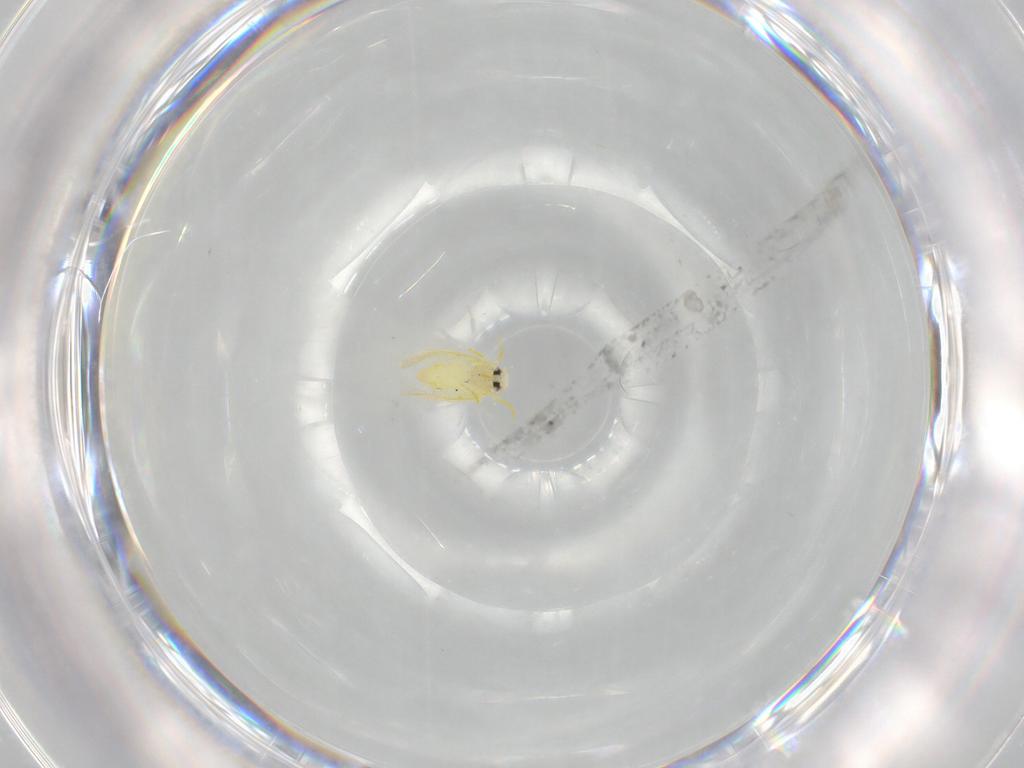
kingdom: Animalia
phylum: Arthropoda
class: Insecta
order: Hemiptera
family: Aleyrodidae
